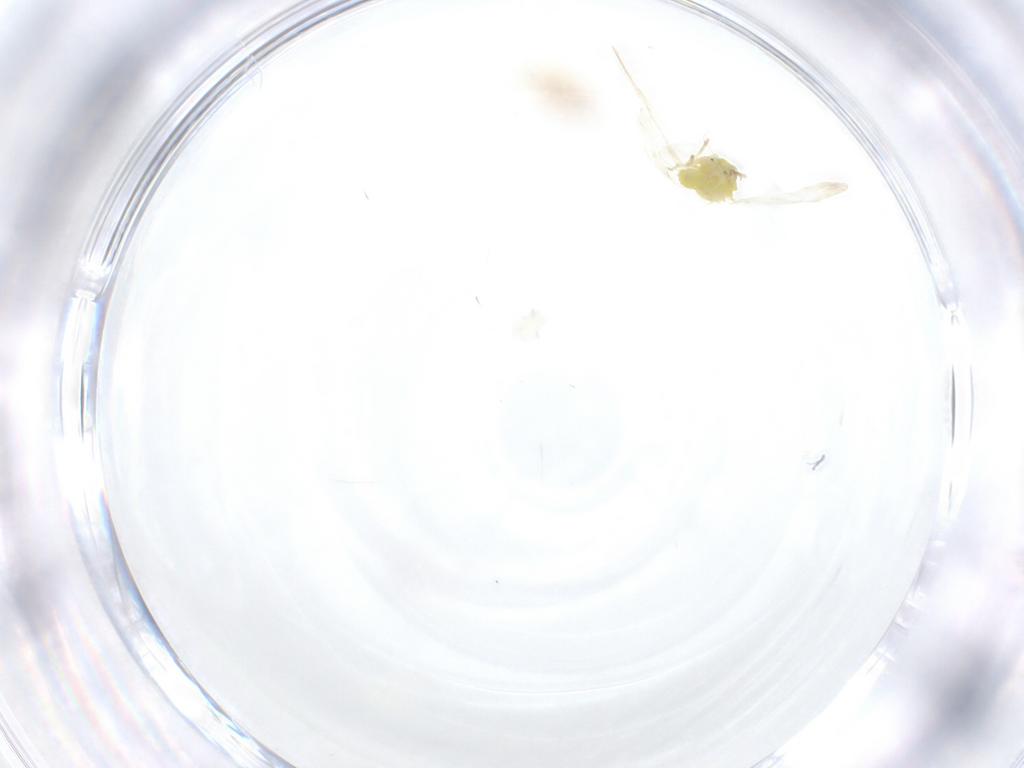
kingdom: Animalia
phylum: Arthropoda
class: Insecta
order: Hemiptera
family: Aleyrodidae
